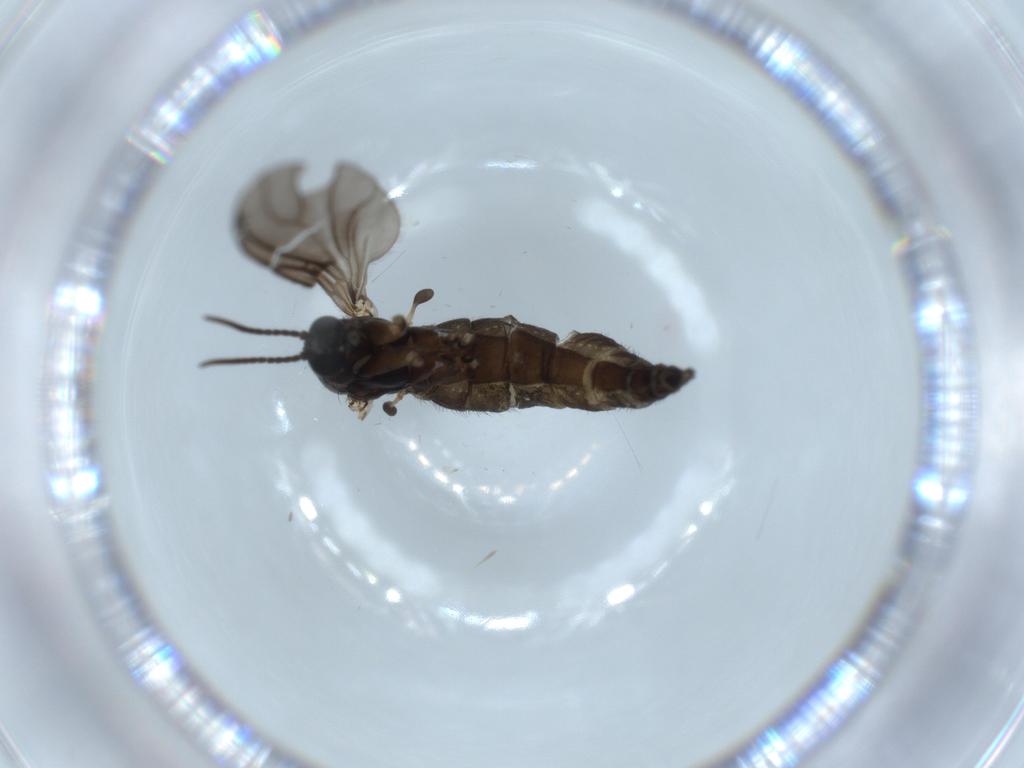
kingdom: Animalia
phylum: Arthropoda
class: Insecta
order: Diptera
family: Sciaridae
